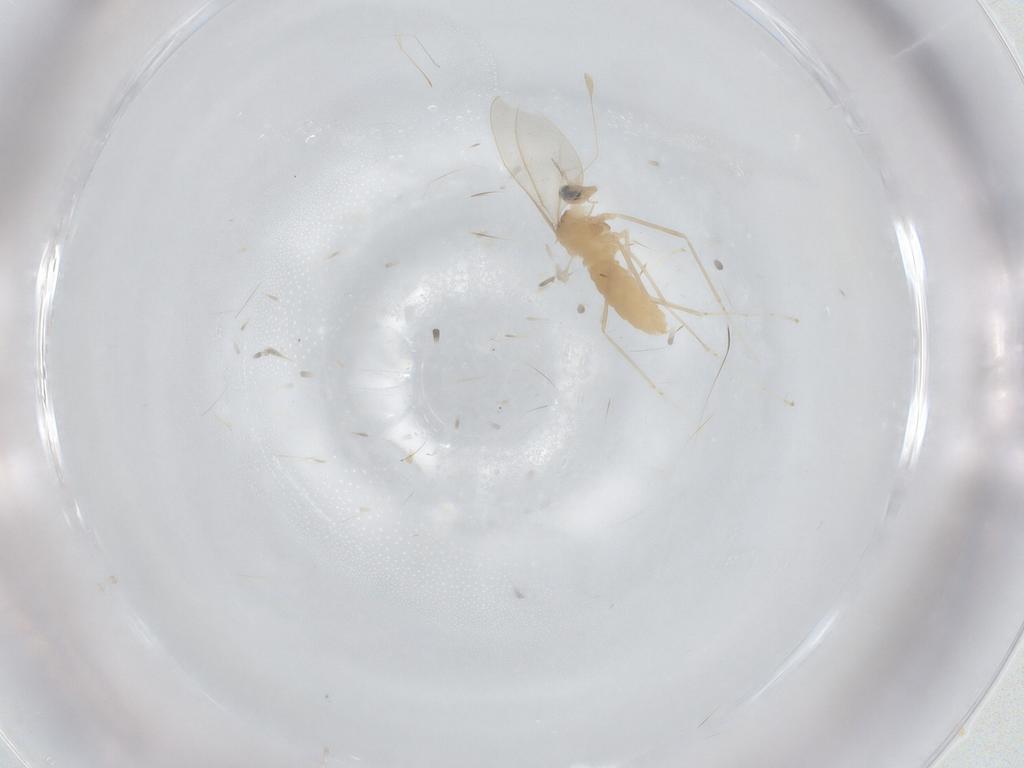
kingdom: Animalia
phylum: Arthropoda
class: Insecta
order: Diptera
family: Cecidomyiidae
